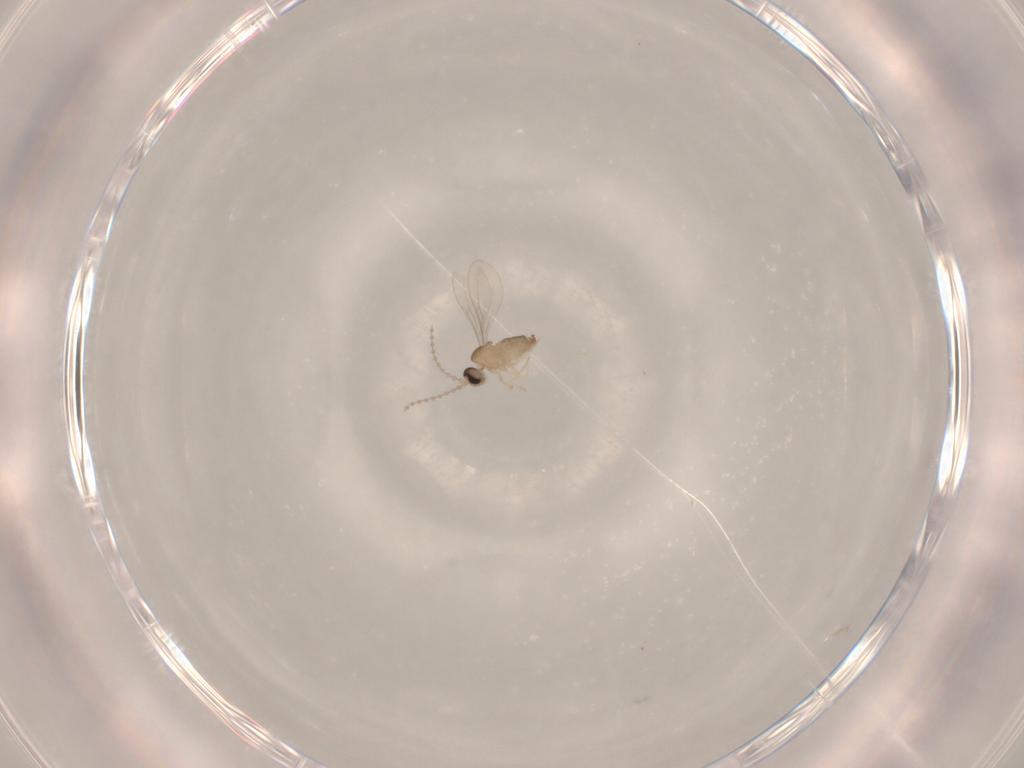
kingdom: Animalia
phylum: Arthropoda
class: Insecta
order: Diptera
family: Cecidomyiidae
